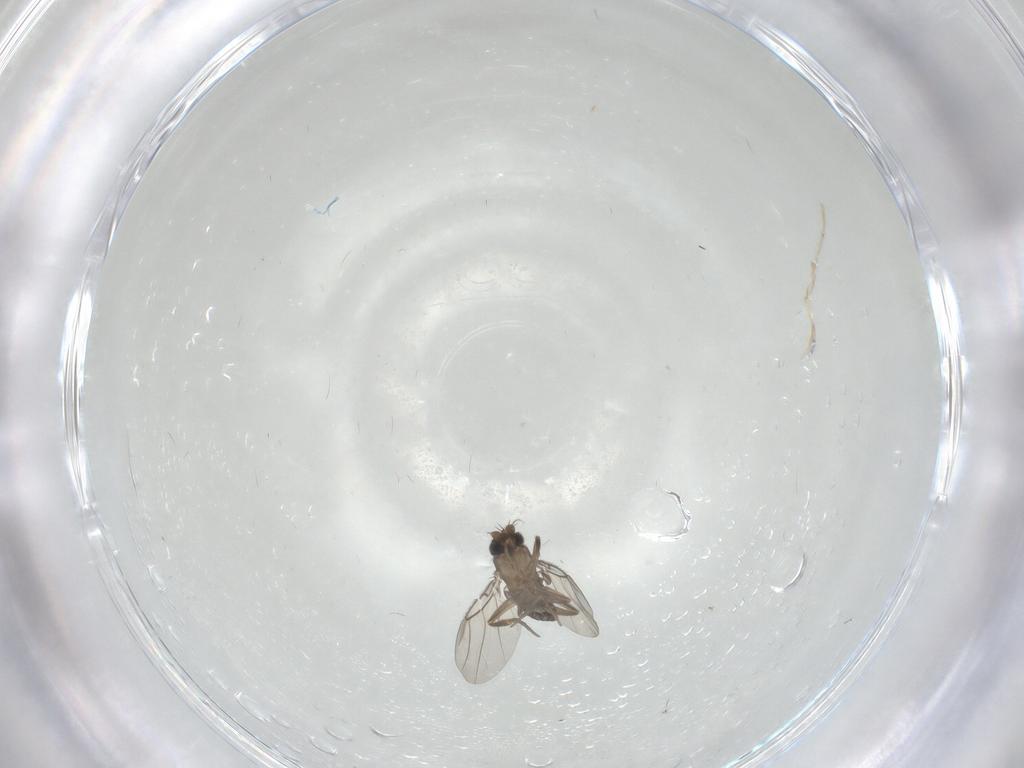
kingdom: Animalia
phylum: Arthropoda
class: Insecta
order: Diptera
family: Phoridae
